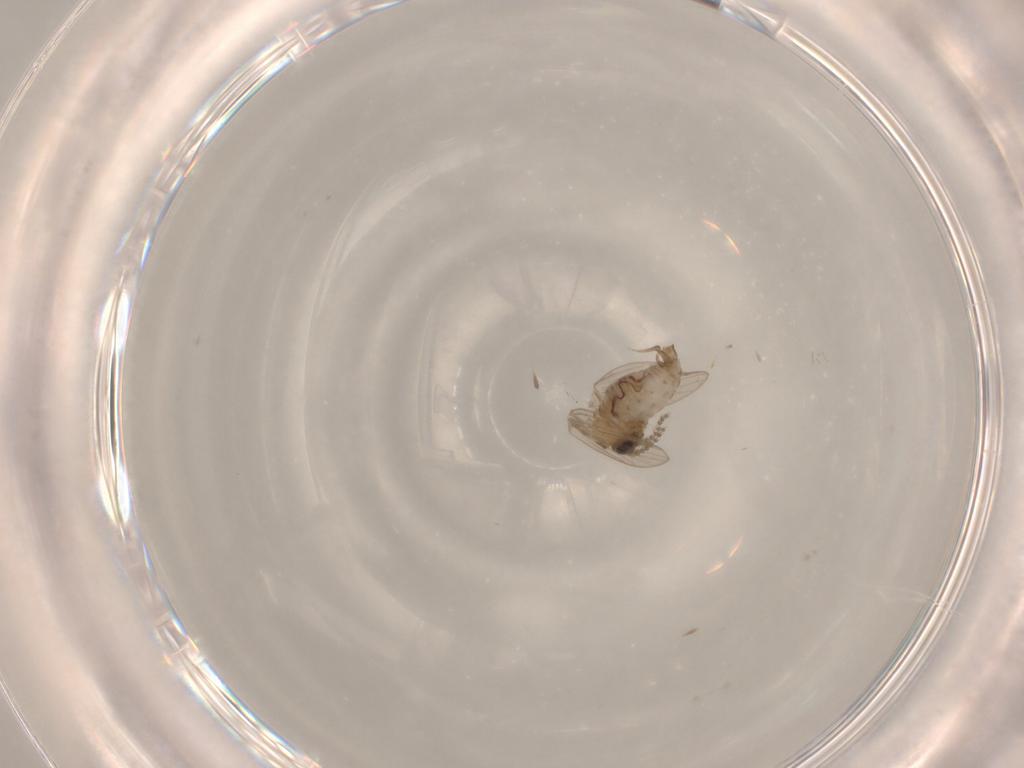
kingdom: Animalia
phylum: Arthropoda
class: Insecta
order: Diptera
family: Psychodidae
